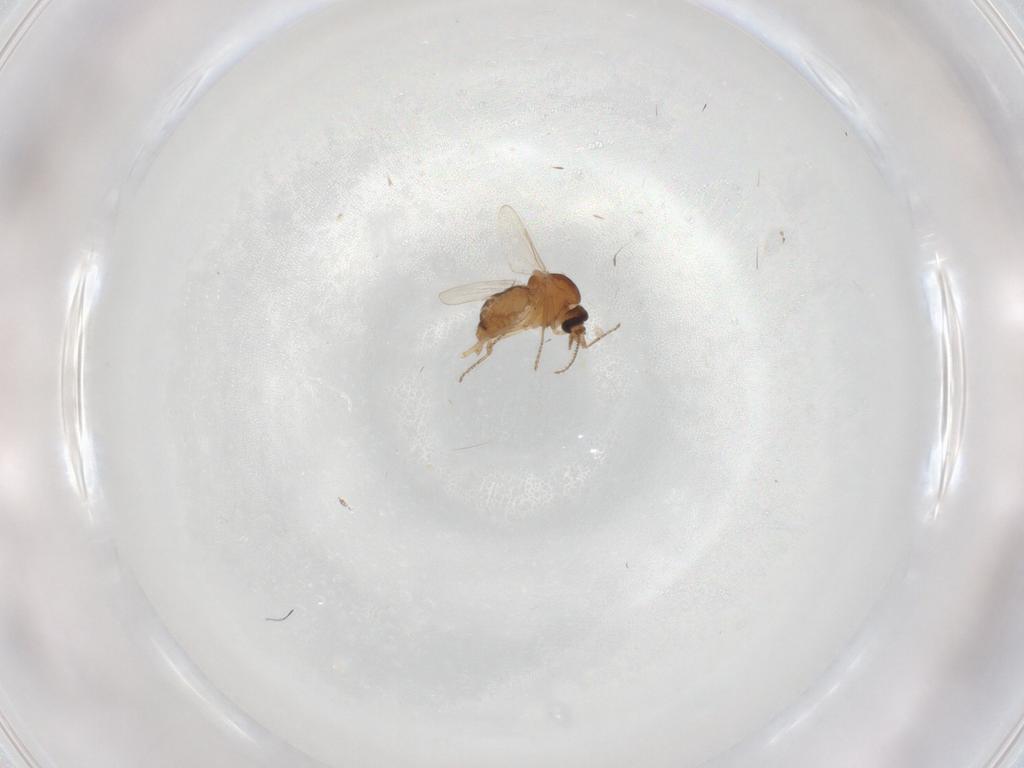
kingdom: Animalia
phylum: Arthropoda
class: Insecta
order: Diptera
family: Ceratopogonidae
